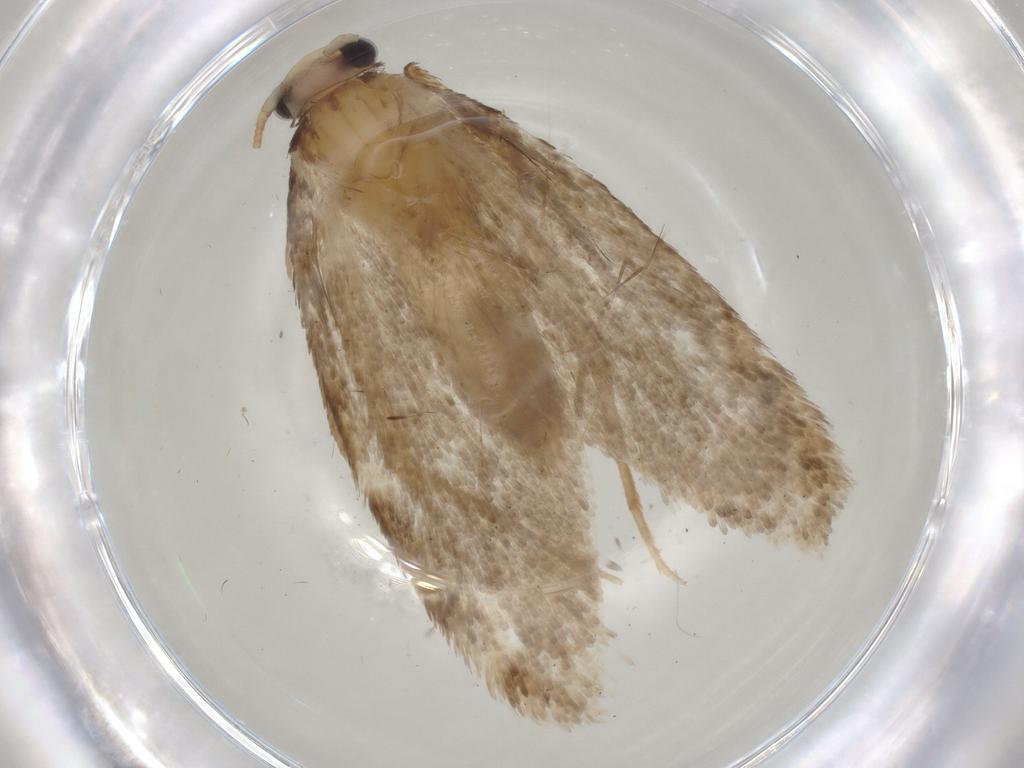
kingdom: Animalia
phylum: Arthropoda
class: Insecta
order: Lepidoptera
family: Tineidae
